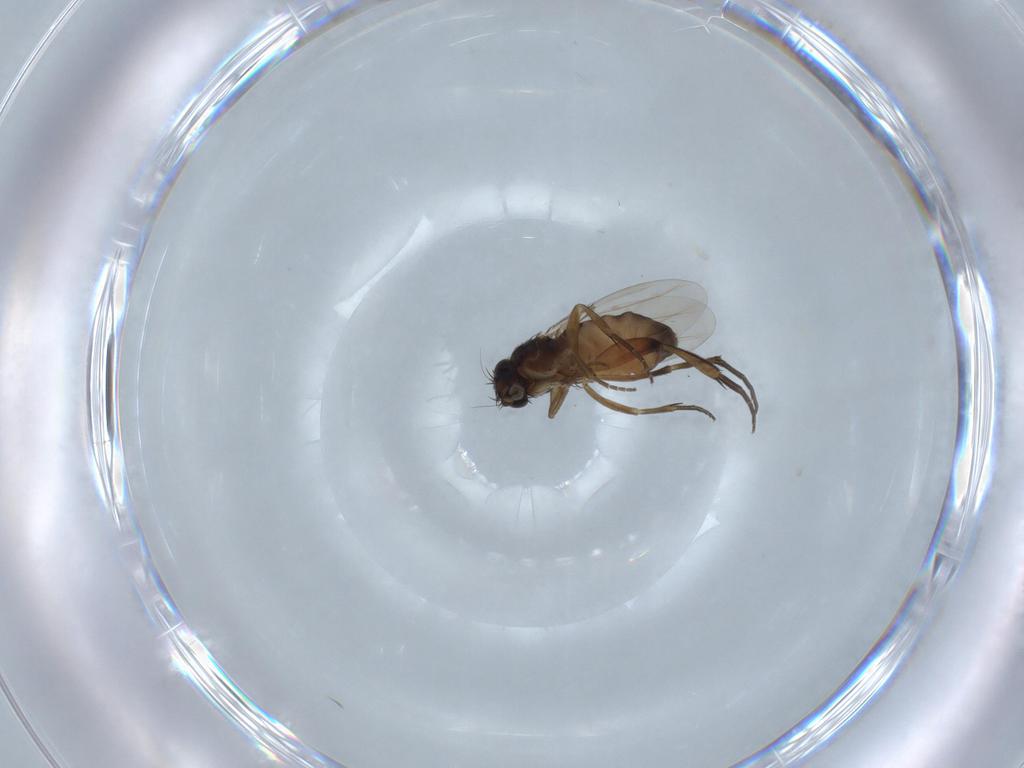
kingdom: Animalia
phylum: Arthropoda
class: Insecta
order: Diptera
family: Phoridae
